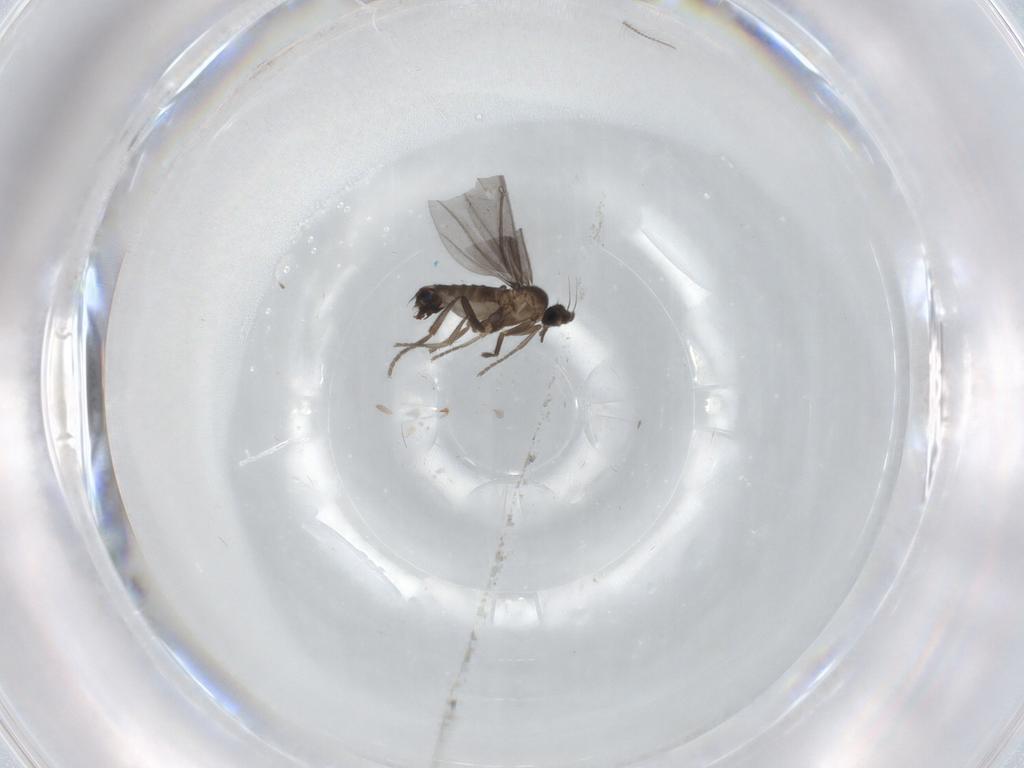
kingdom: Animalia
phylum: Arthropoda
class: Insecta
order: Diptera
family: Phoridae
